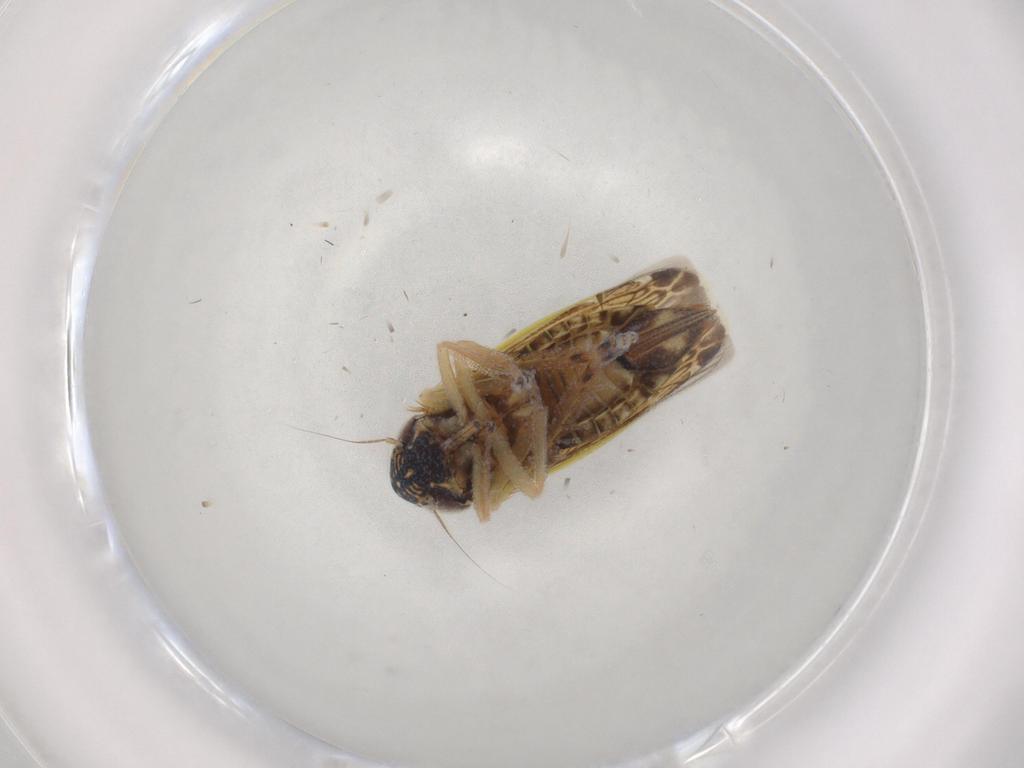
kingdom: Animalia
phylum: Arthropoda
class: Insecta
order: Hemiptera
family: Cicadellidae
